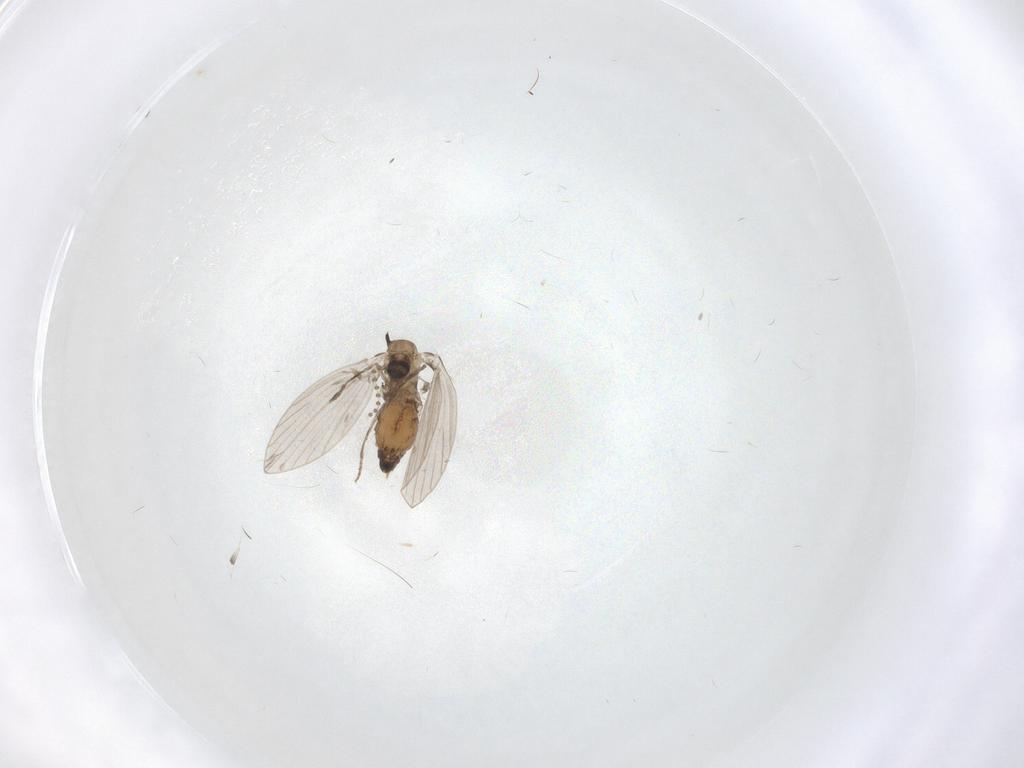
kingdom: Animalia
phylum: Arthropoda
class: Insecta
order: Diptera
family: Psychodidae
